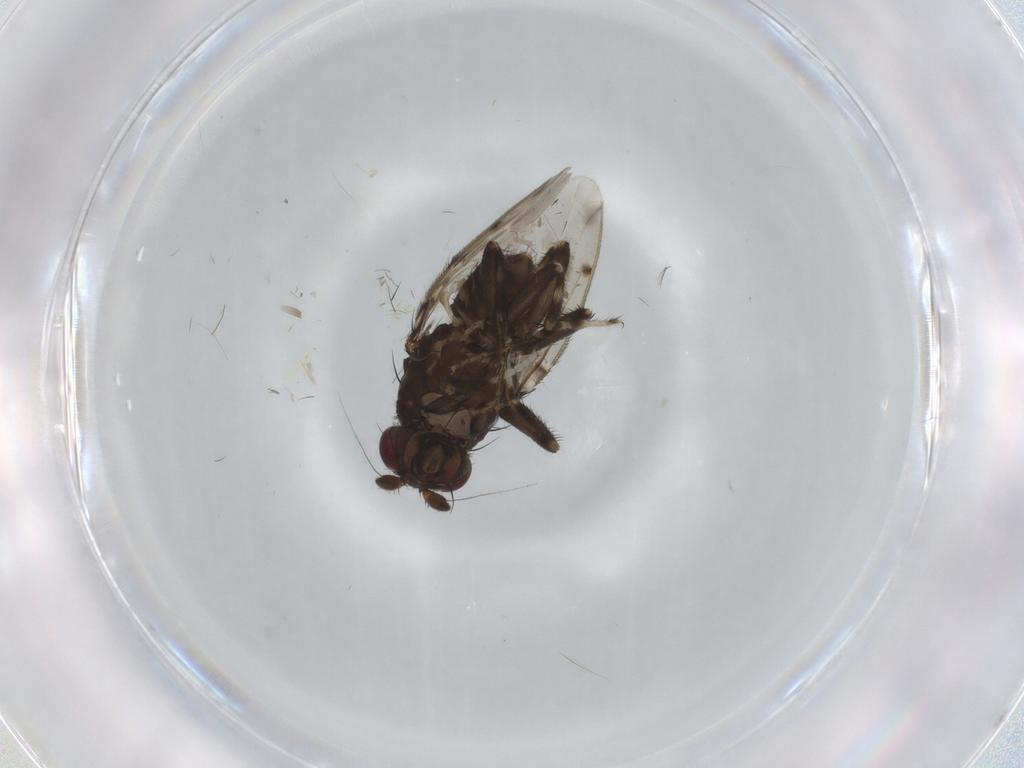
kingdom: Animalia
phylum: Arthropoda
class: Insecta
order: Diptera
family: Sphaeroceridae
